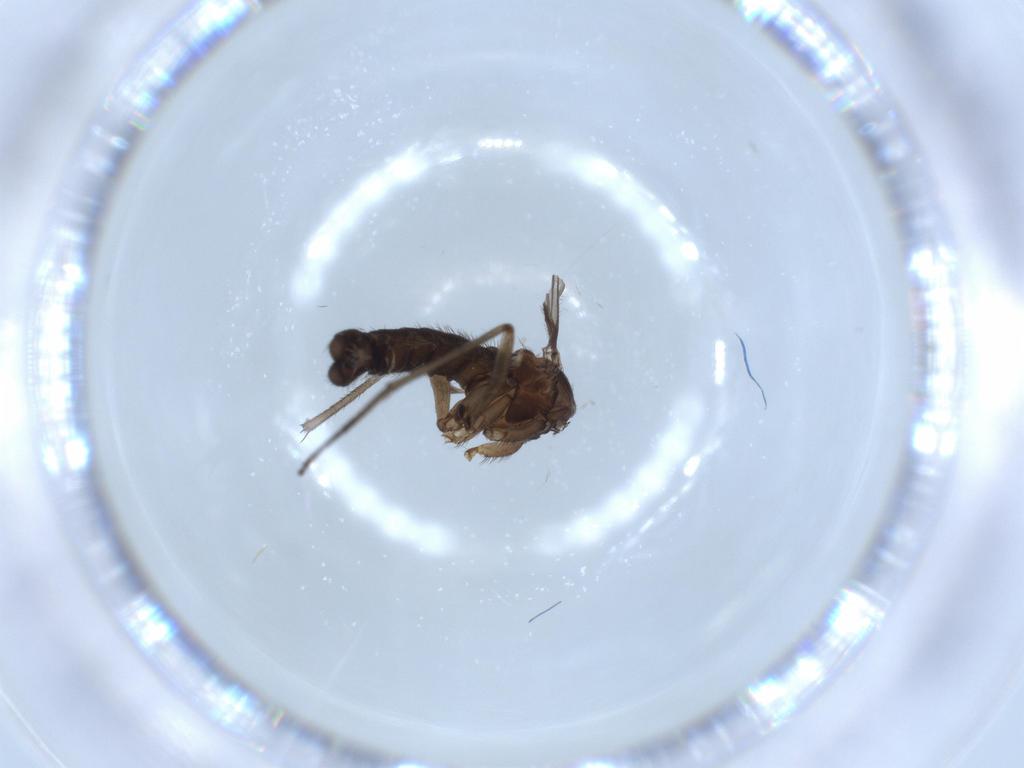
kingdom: Animalia
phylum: Arthropoda
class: Insecta
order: Diptera
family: Sciaridae
